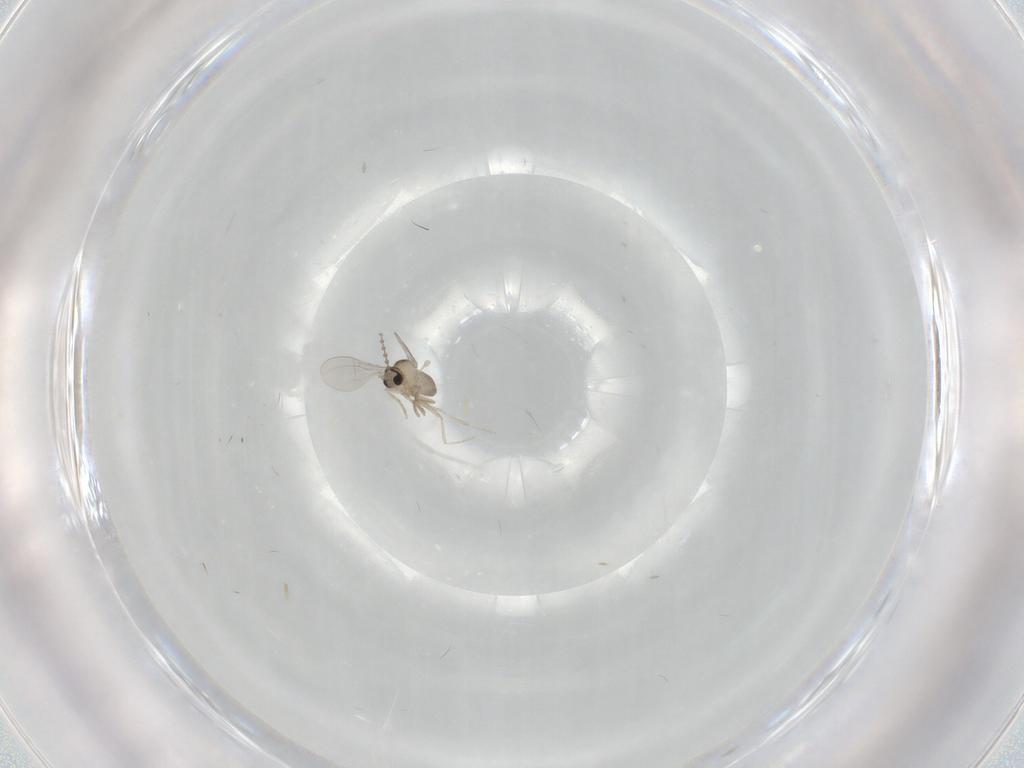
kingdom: Animalia
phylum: Arthropoda
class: Insecta
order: Diptera
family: Cecidomyiidae
